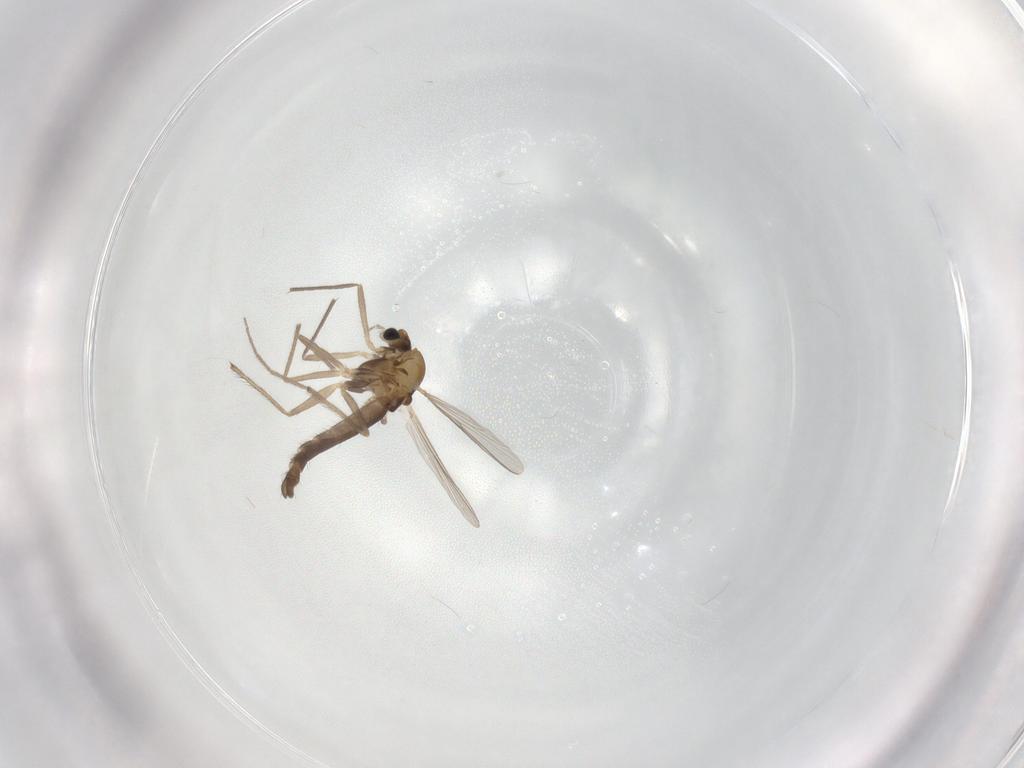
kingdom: Animalia
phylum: Arthropoda
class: Insecta
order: Diptera
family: Chironomidae
